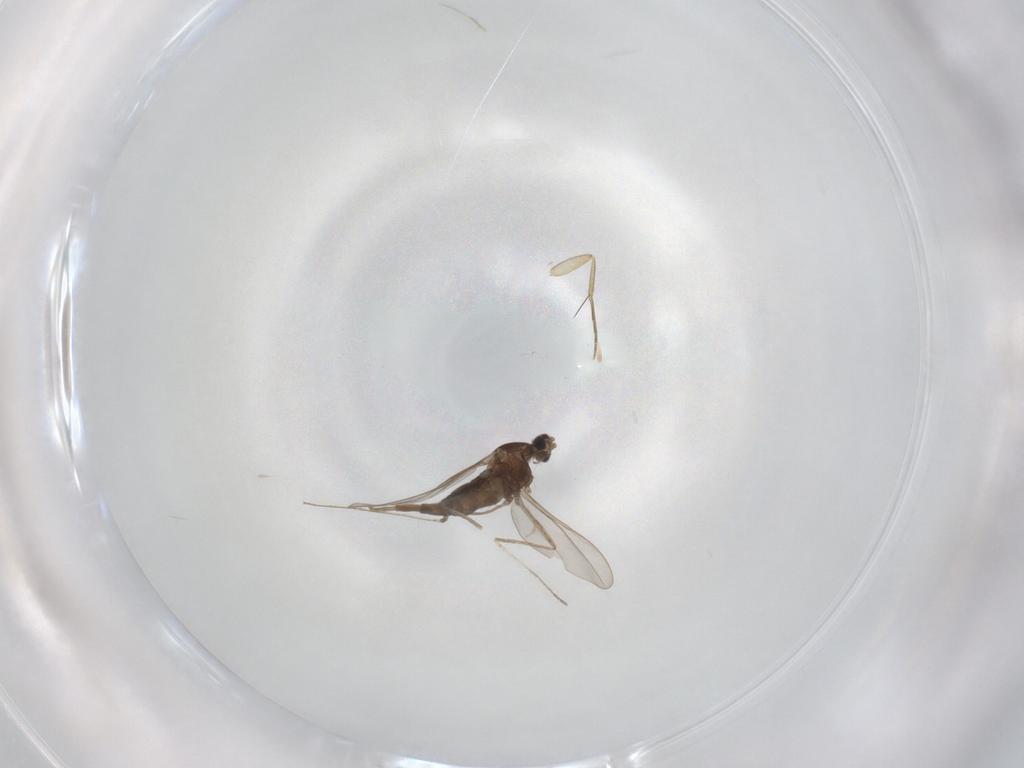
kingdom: Animalia
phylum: Arthropoda
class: Insecta
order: Diptera
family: Cecidomyiidae
